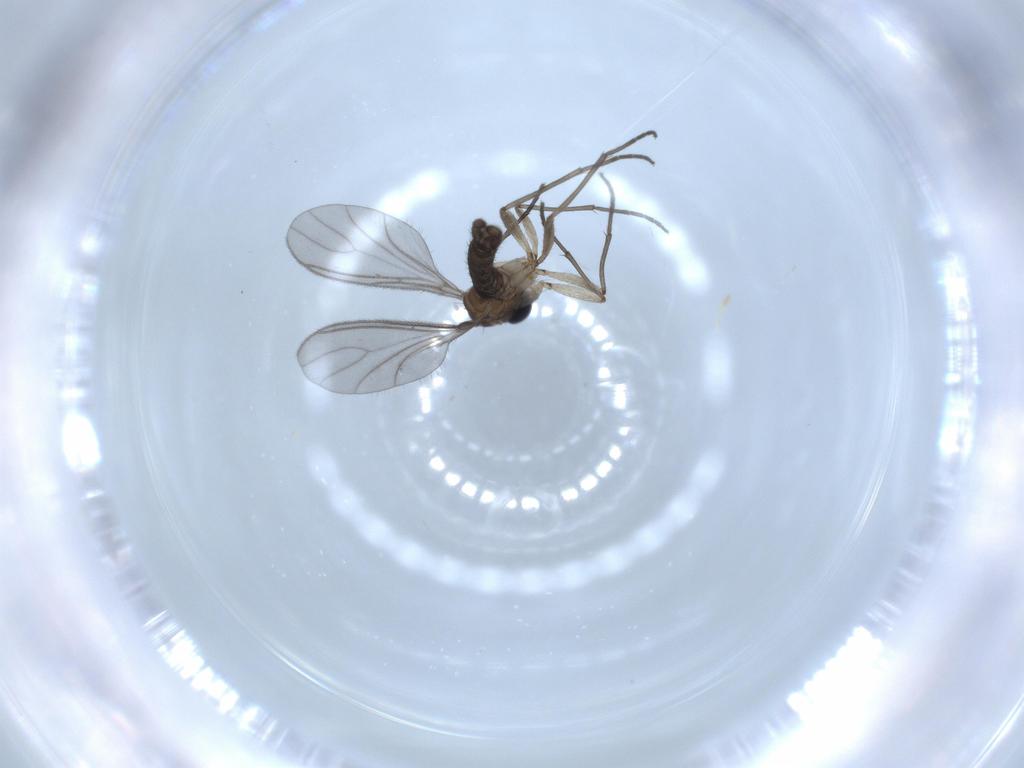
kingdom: Animalia
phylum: Arthropoda
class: Insecta
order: Diptera
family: Sciaridae
